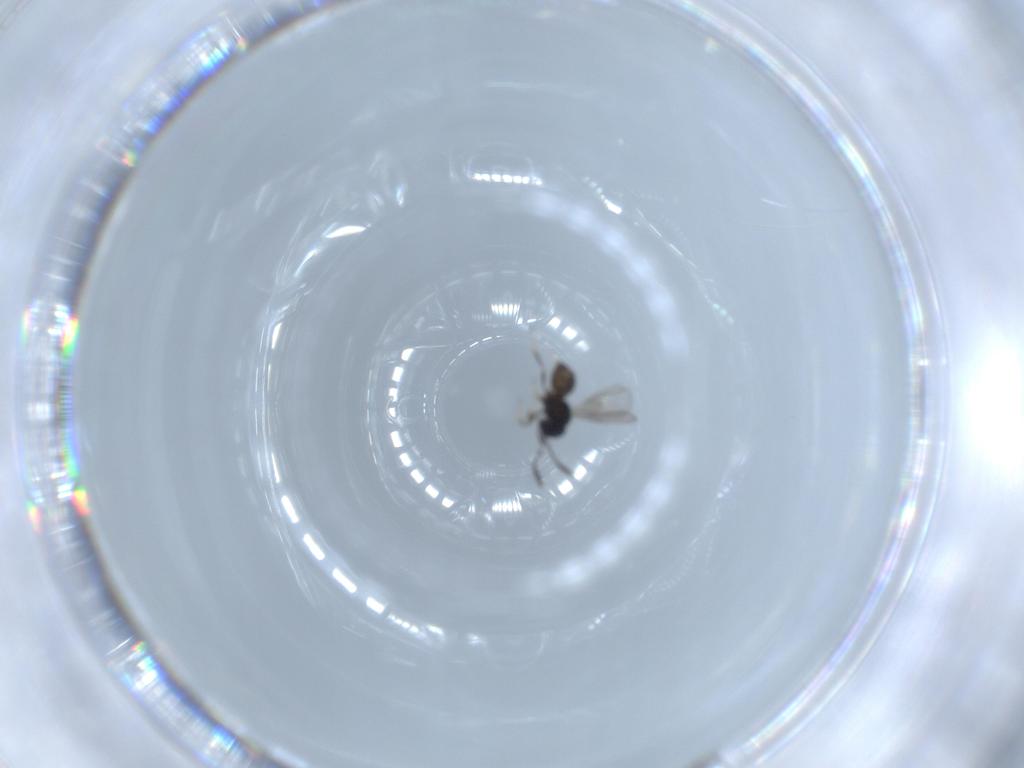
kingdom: Animalia
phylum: Arthropoda
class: Insecta
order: Hymenoptera
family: Scelionidae
